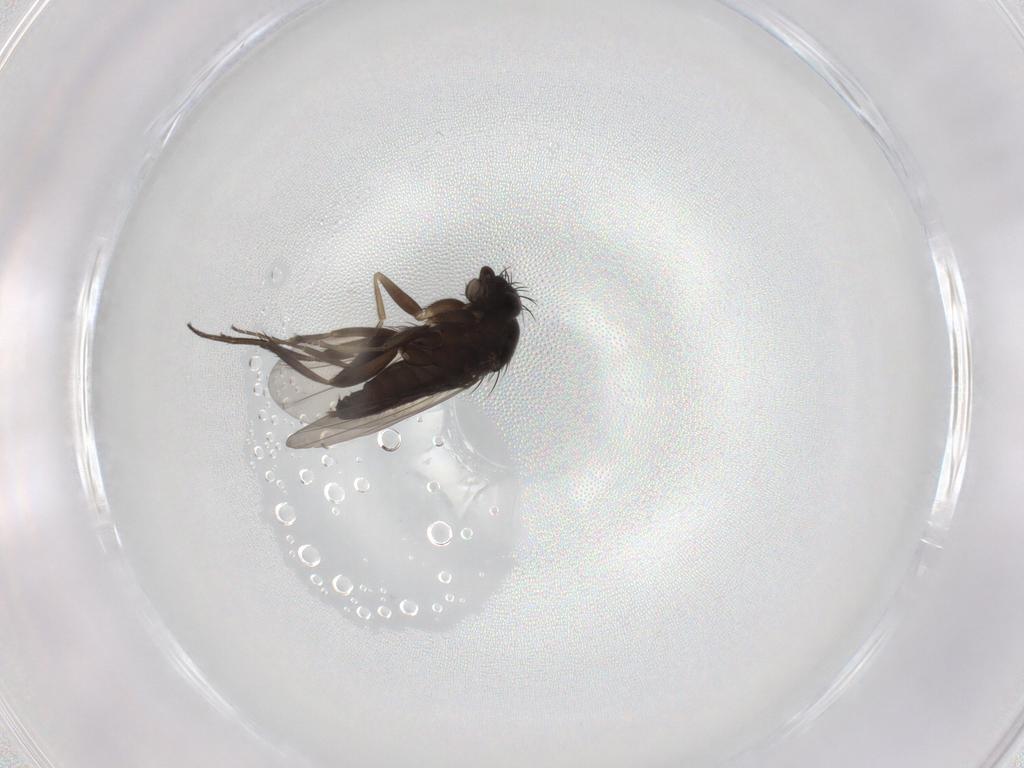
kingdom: Animalia
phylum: Arthropoda
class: Insecta
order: Diptera
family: Phoridae
